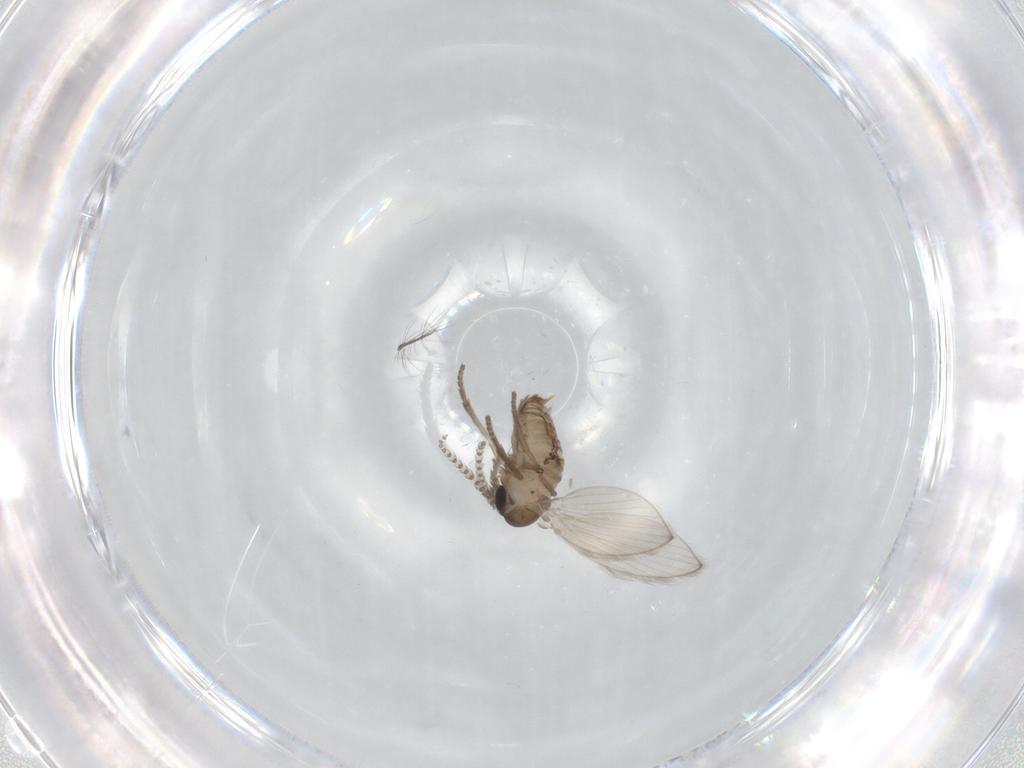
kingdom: Animalia
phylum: Arthropoda
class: Insecta
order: Diptera
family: Psychodidae
